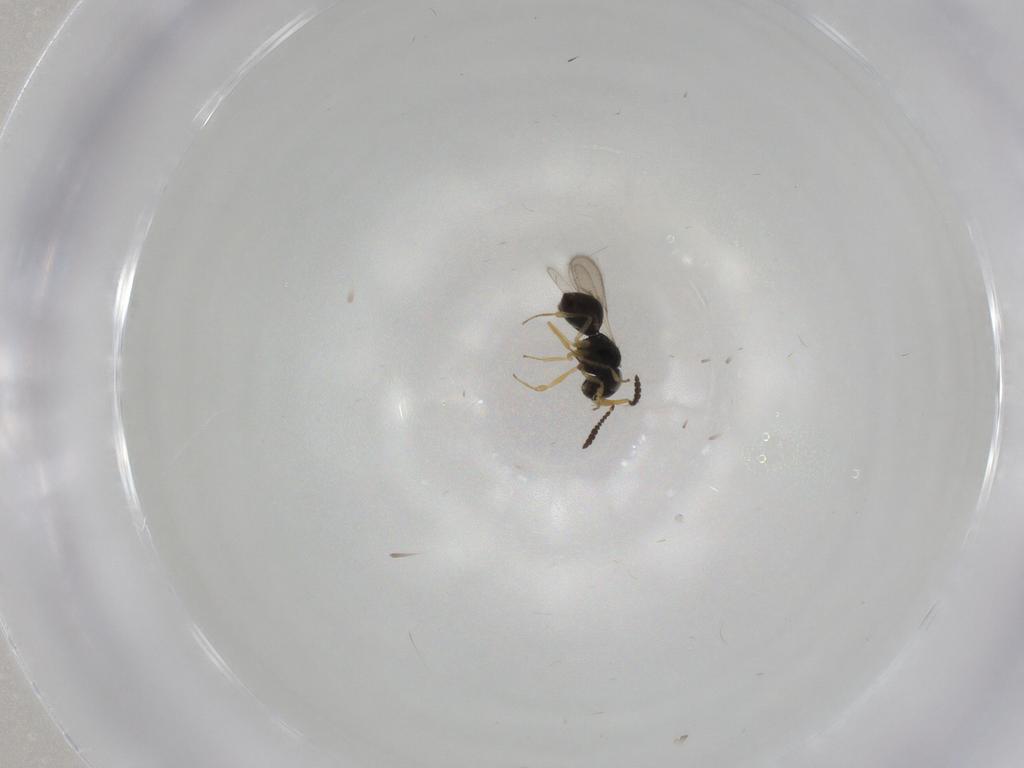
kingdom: Animalia
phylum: Arthropoda
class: Insecta
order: Hymenoptera
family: Scelionidae
